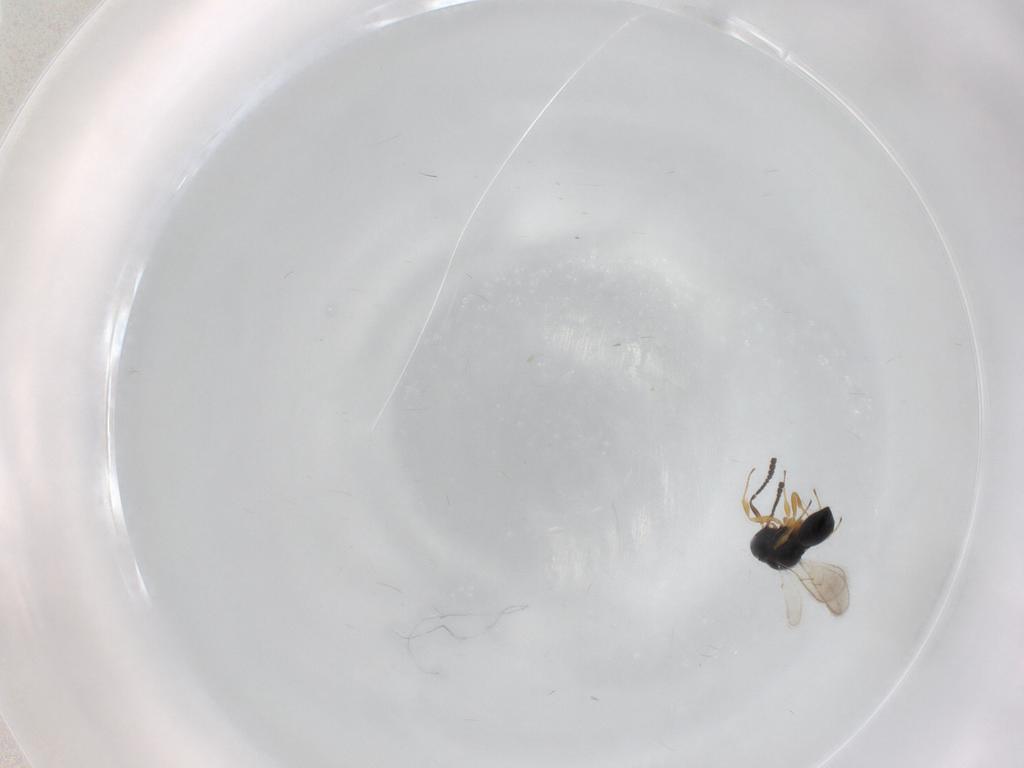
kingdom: Animalia
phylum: Arthropoda
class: Insecta
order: Hymenoptera
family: Scelionidae
